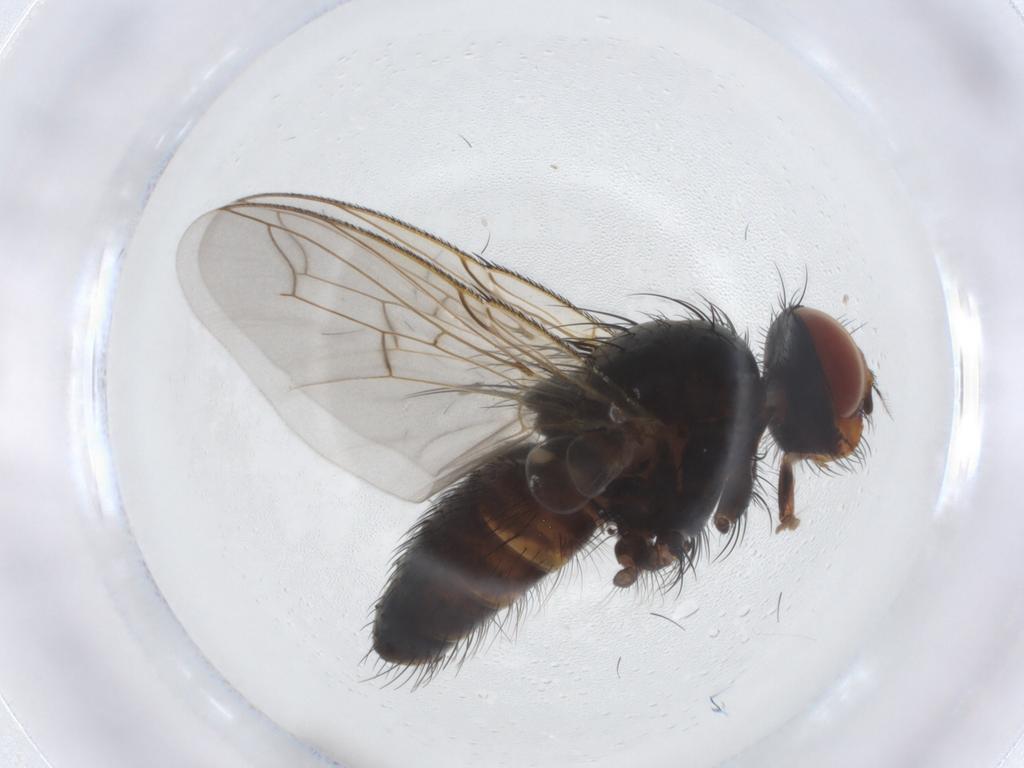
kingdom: Animalia
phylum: Arthropoda
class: Insecta
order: Diptera
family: Tachinidae
